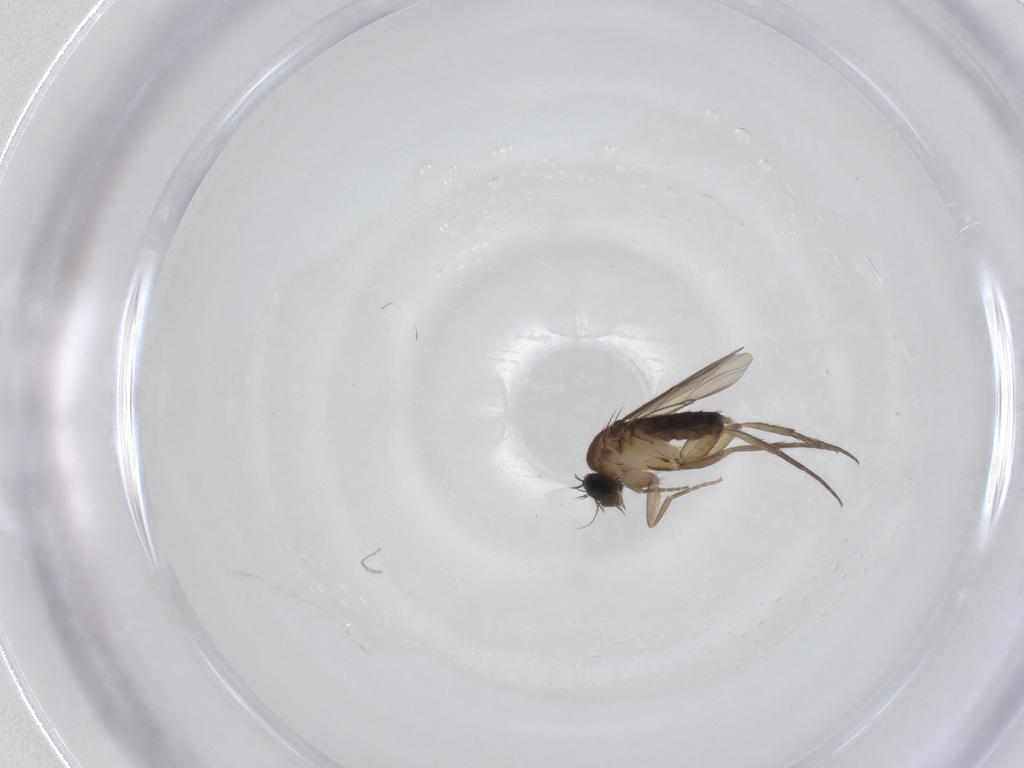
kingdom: Animalia
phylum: Arthropoda
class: Insecta
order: Diptera
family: Phoridae
